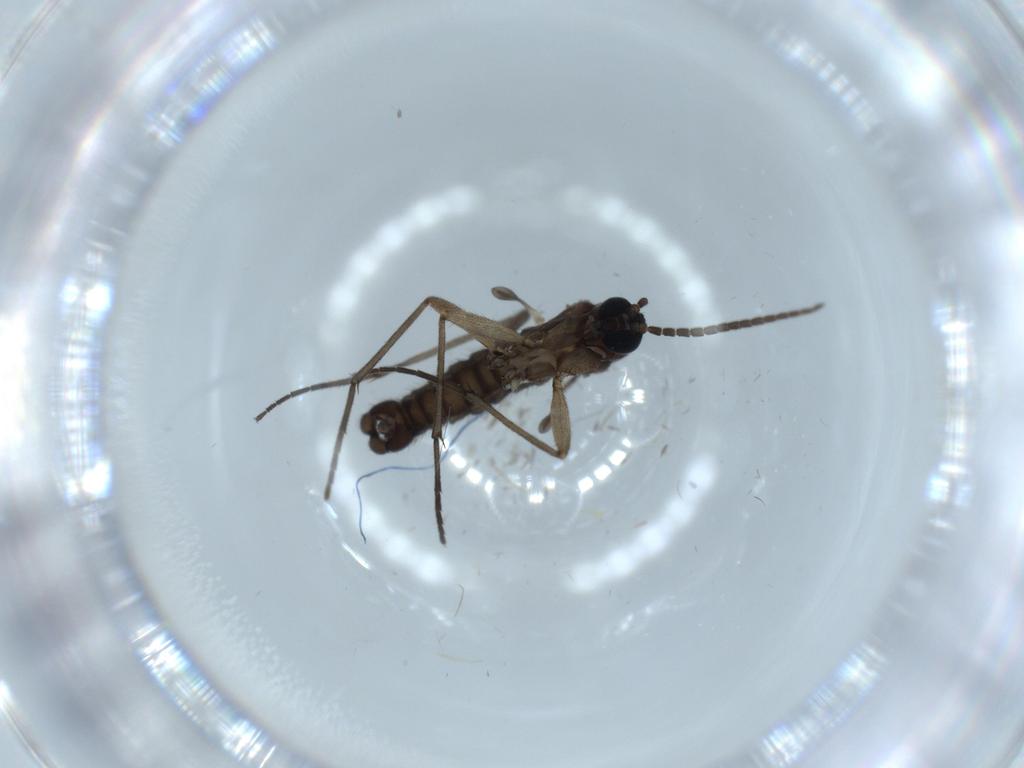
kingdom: Animalia
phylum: Arthropoda
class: Insecta
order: Diptera
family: Sciaridae
